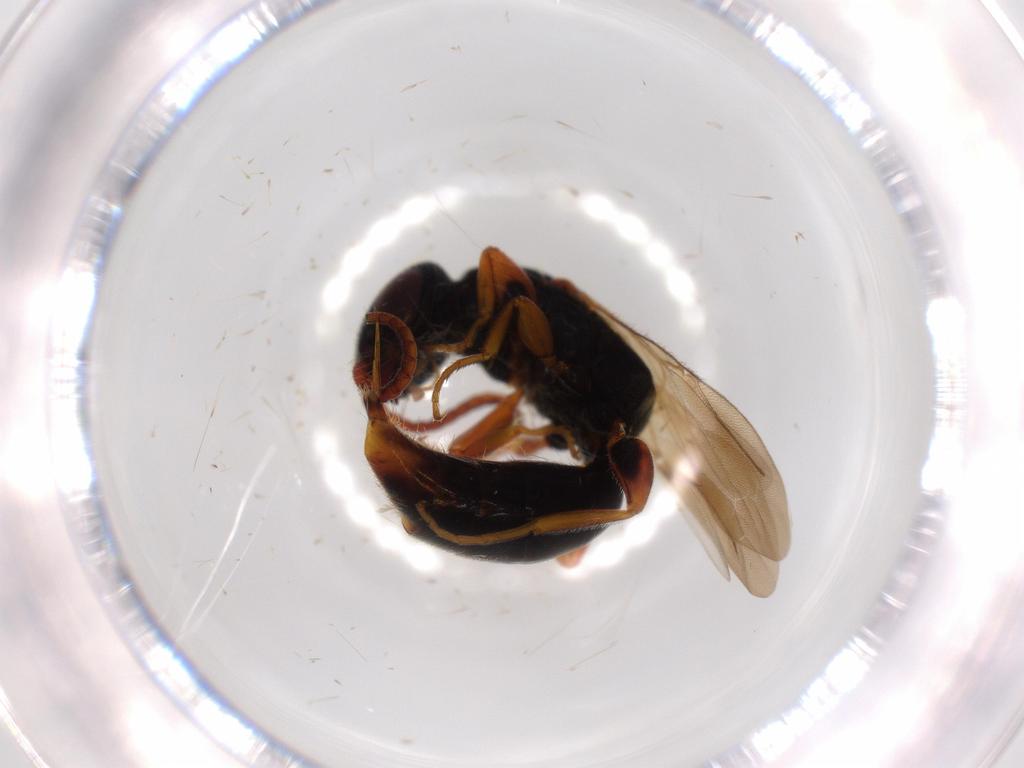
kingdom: Animalia
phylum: Arthropoda
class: Insecta
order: Hymenoptera
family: Bethylidae
